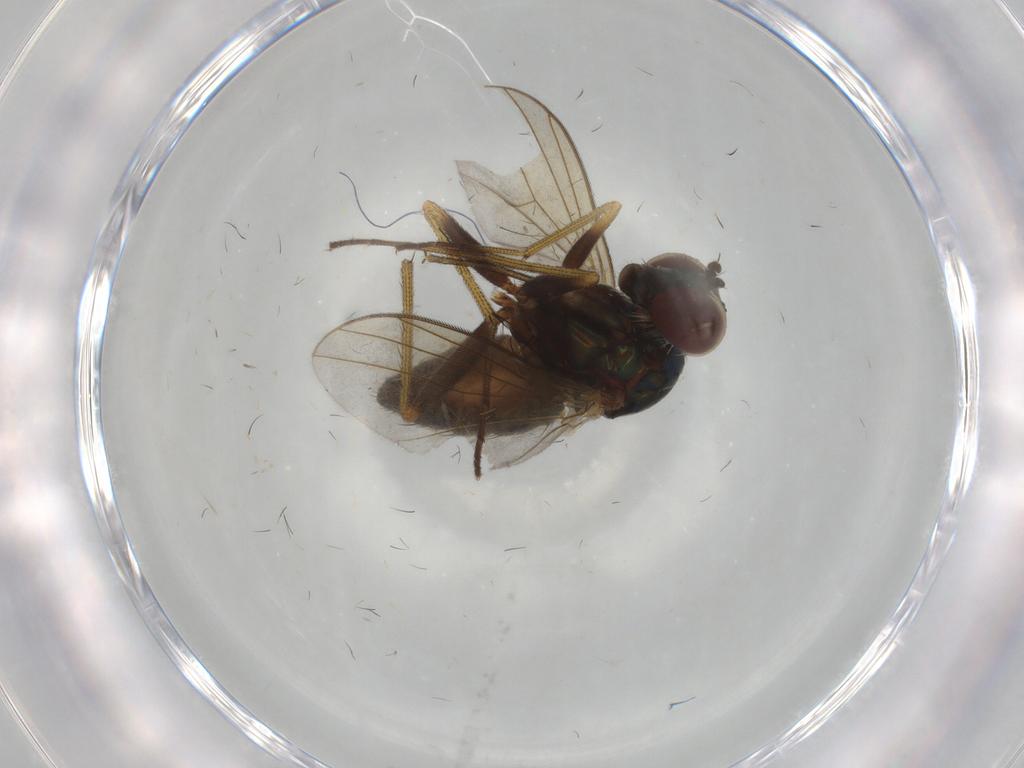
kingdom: Animalia
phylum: Arthropoda
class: Insecta
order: Diptera
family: Dolichopodidae
